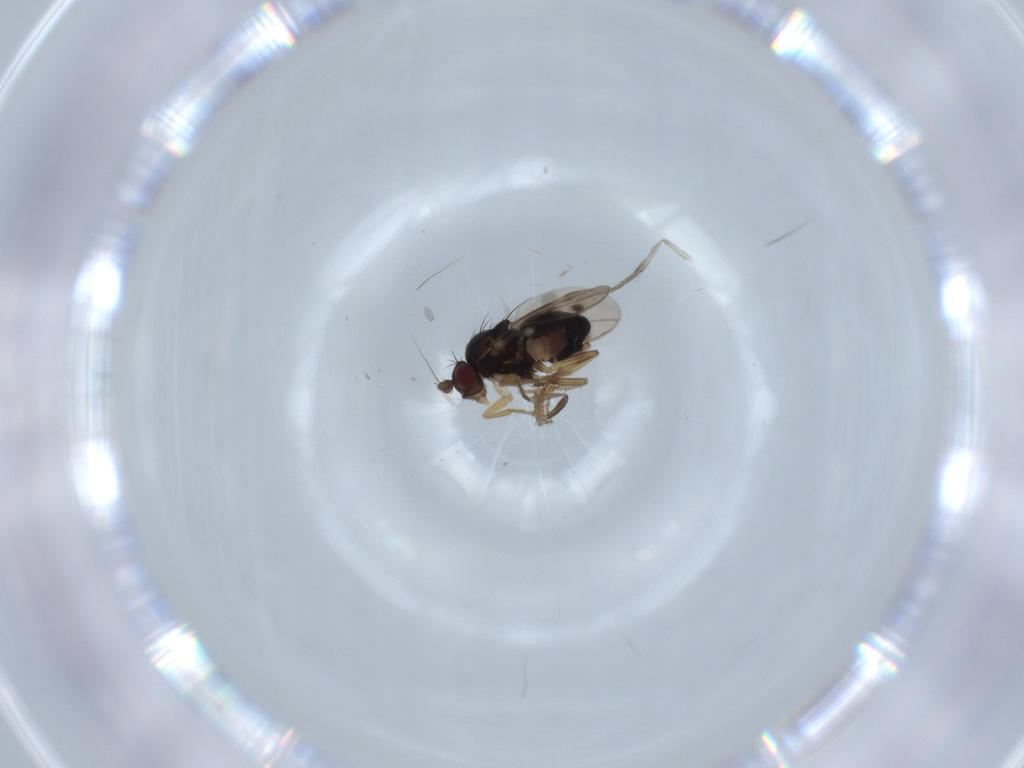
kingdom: Animalia
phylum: Arthropoda
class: Insecta
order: Diptera
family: Sphaeroceridae
